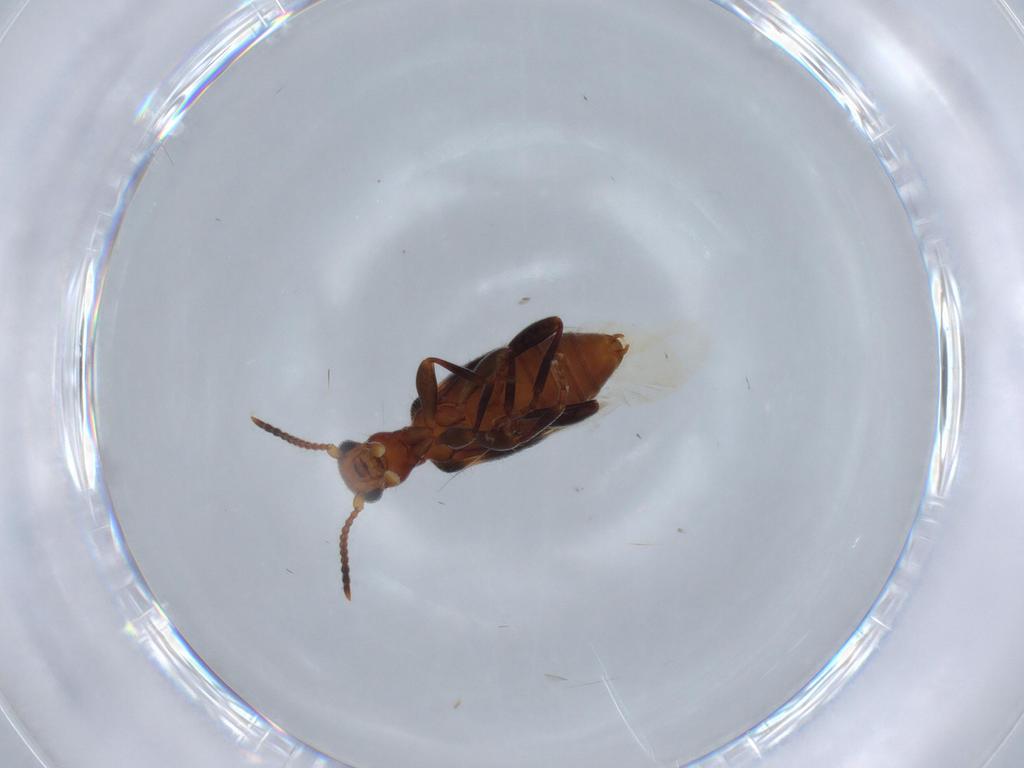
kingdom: Animalia
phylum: Arthropoda
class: Insecta
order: Coleoptera
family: Anthicidae
